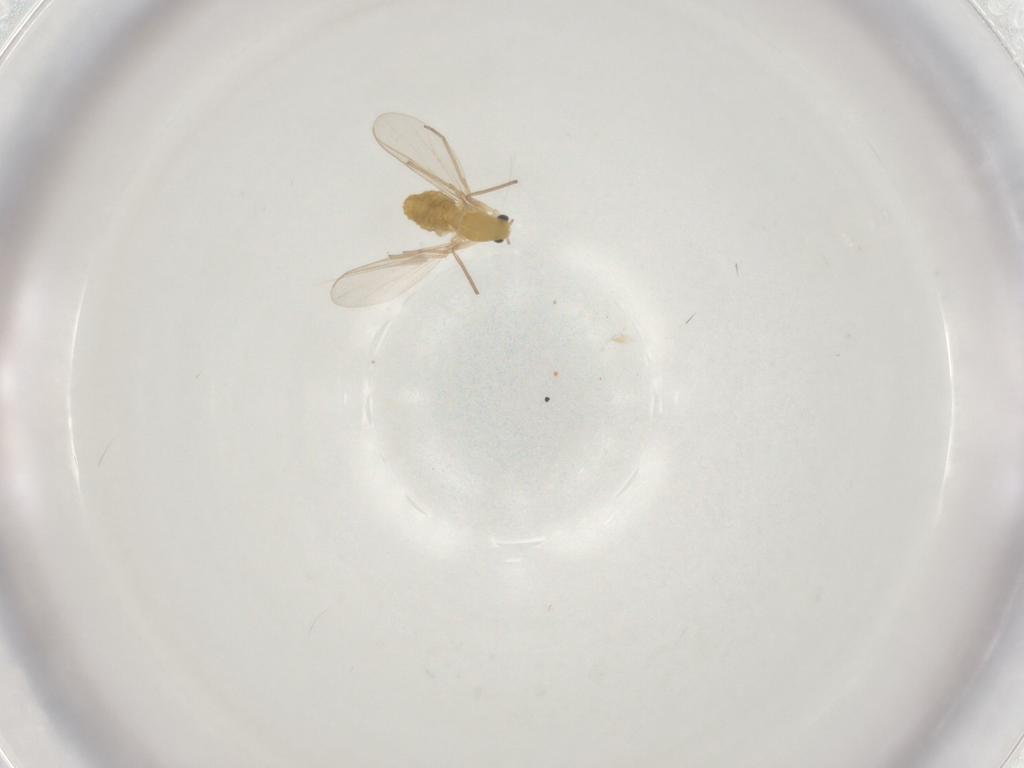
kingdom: Animalia
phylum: Arthropoda
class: Insecta
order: Diptera
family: Chironomidae
